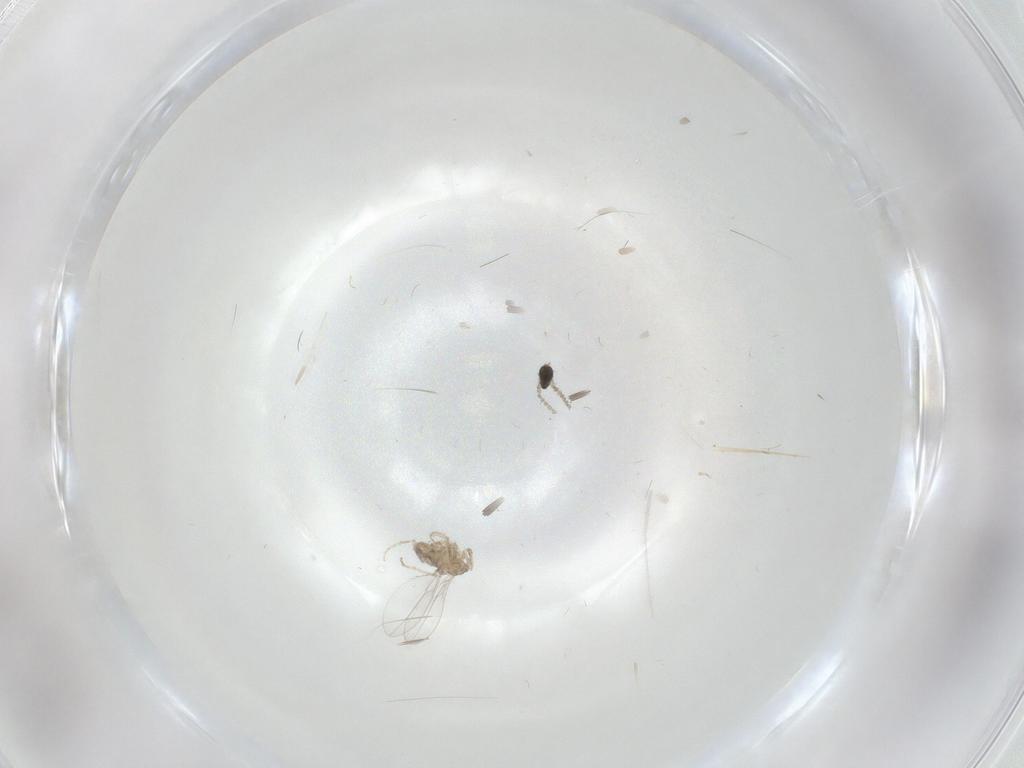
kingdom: Animalia
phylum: Arthropoda
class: Insecta
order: Diptera
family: Cecidomyiidae
